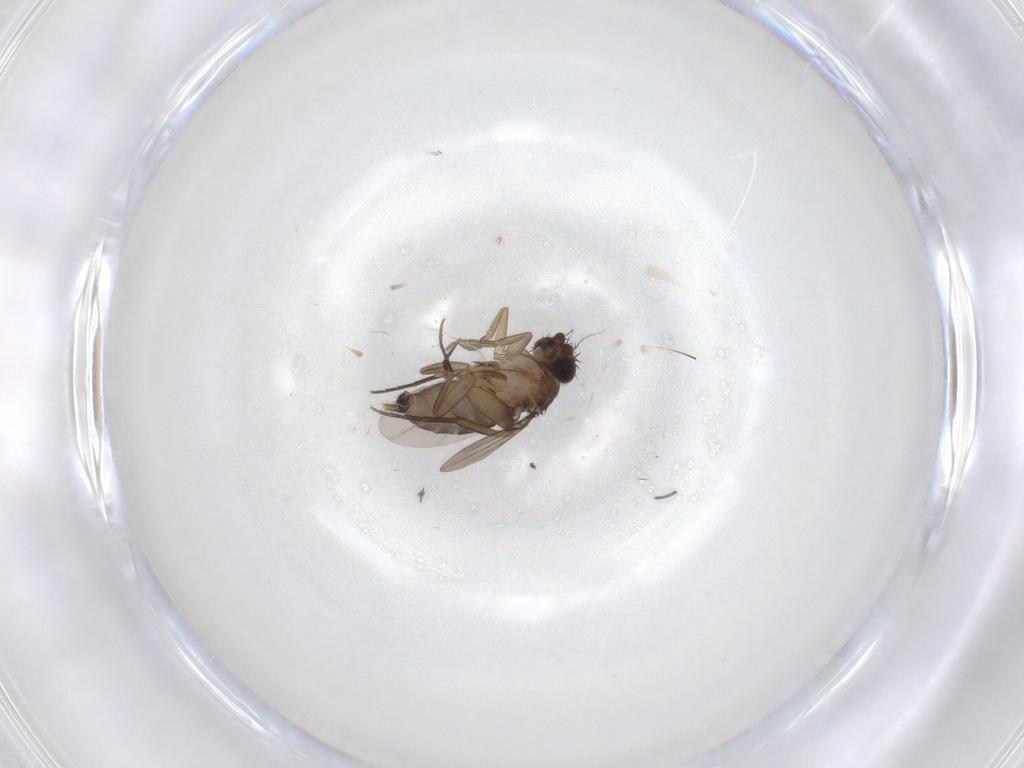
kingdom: Animalia
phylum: Arthropoda
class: Insecta
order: Diptera
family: Phoridae
